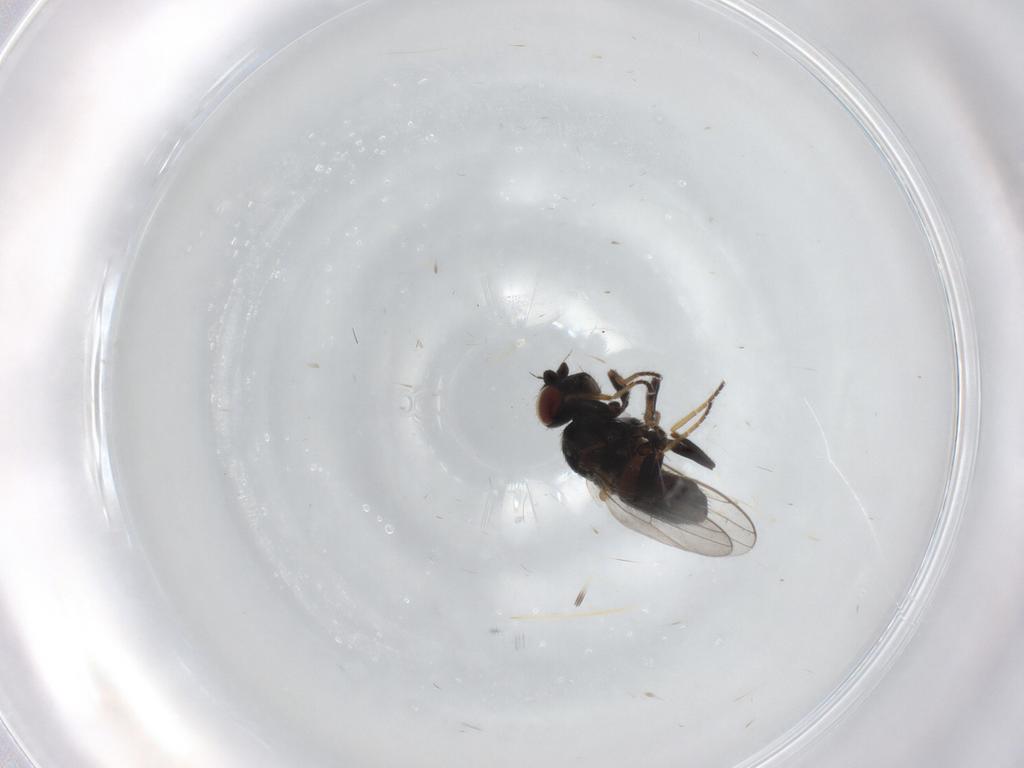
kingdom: Animalia
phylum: Arthropoda
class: Insecta
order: Diptera
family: Chloropidae
